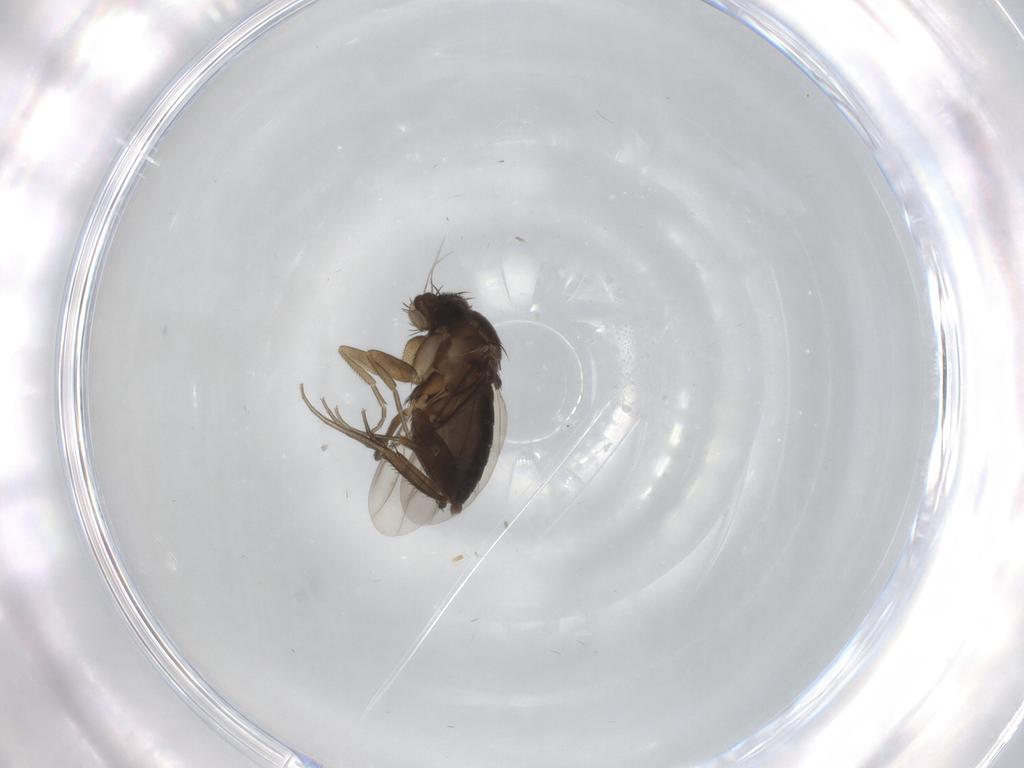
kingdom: Animalia
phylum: Arthropoda
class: Insecta
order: Diptera
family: Phoridae
